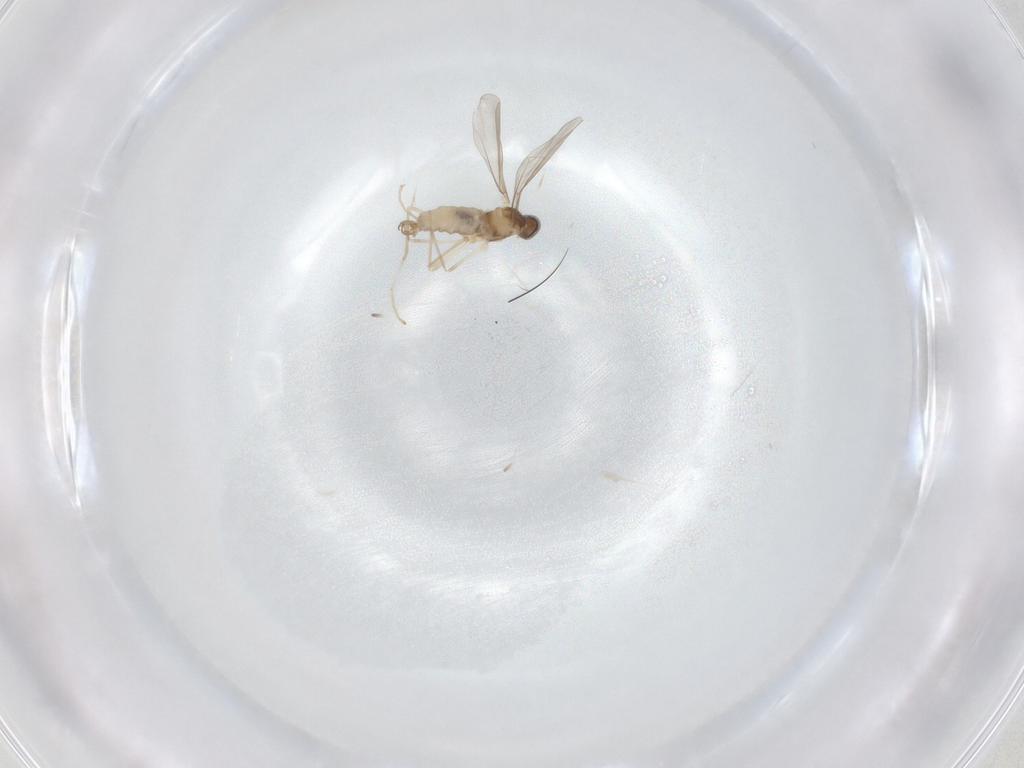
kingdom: Animalia
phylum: Arthropoda
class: Insecta
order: Diptera
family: Cecidomyiidae
